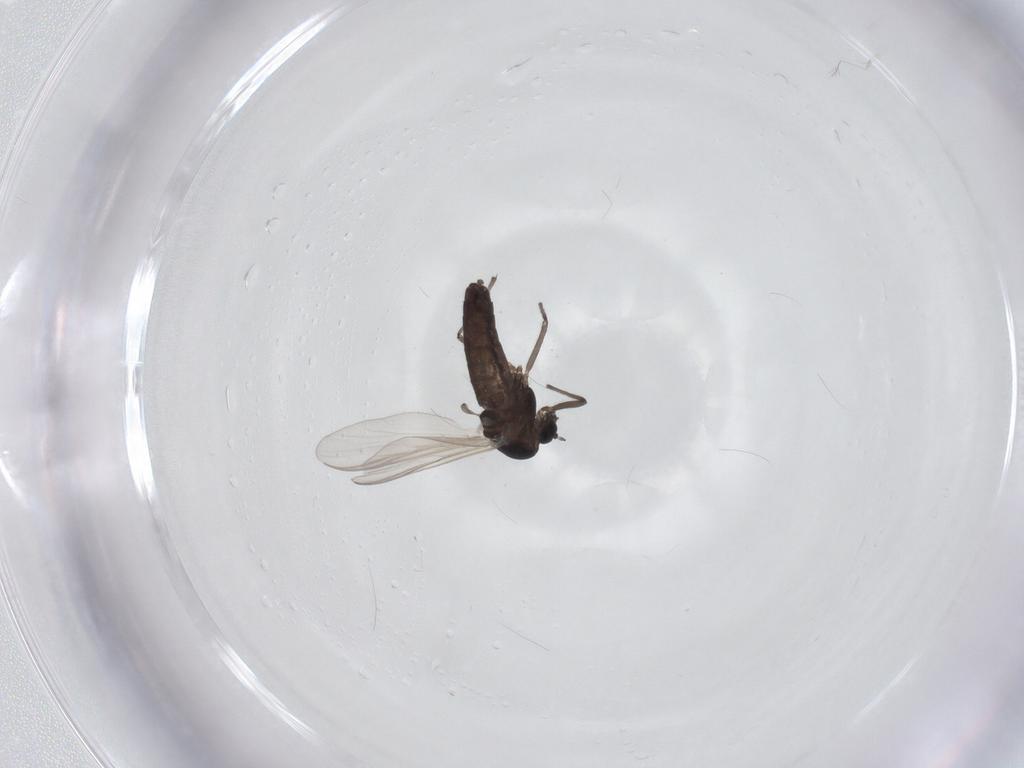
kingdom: Animalia
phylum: Arthropoda
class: Insecta
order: Diptera
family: Chironomidae
